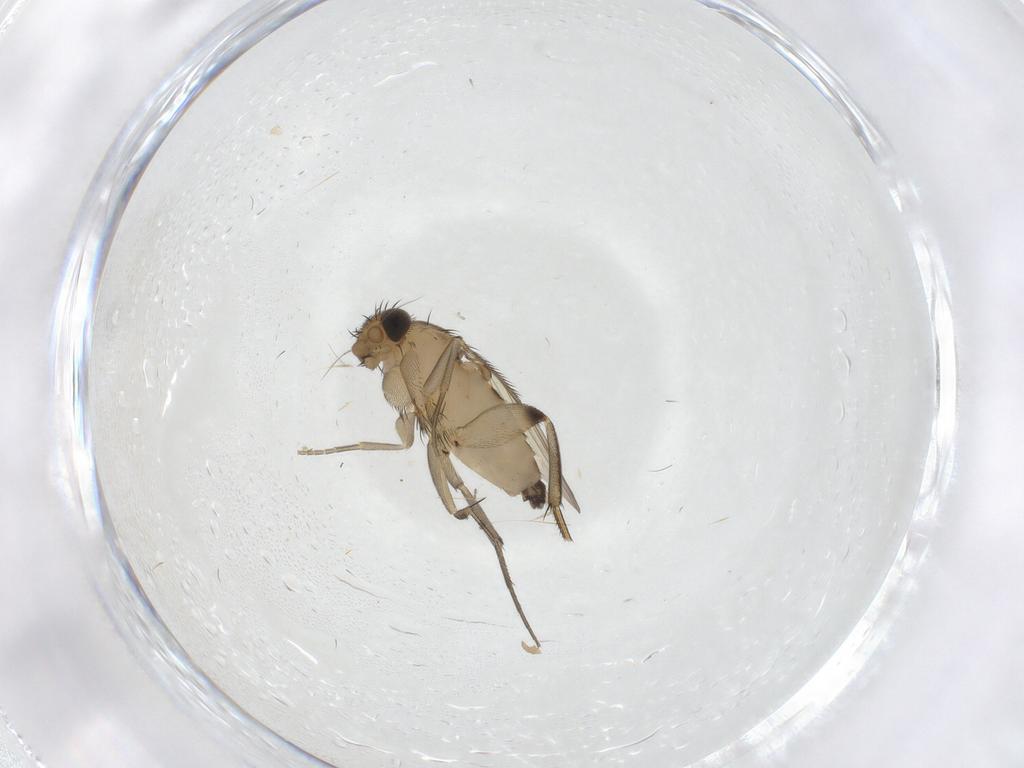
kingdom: Animalia
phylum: Arthropoda
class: Insecta
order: Diptera
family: Phoridae
